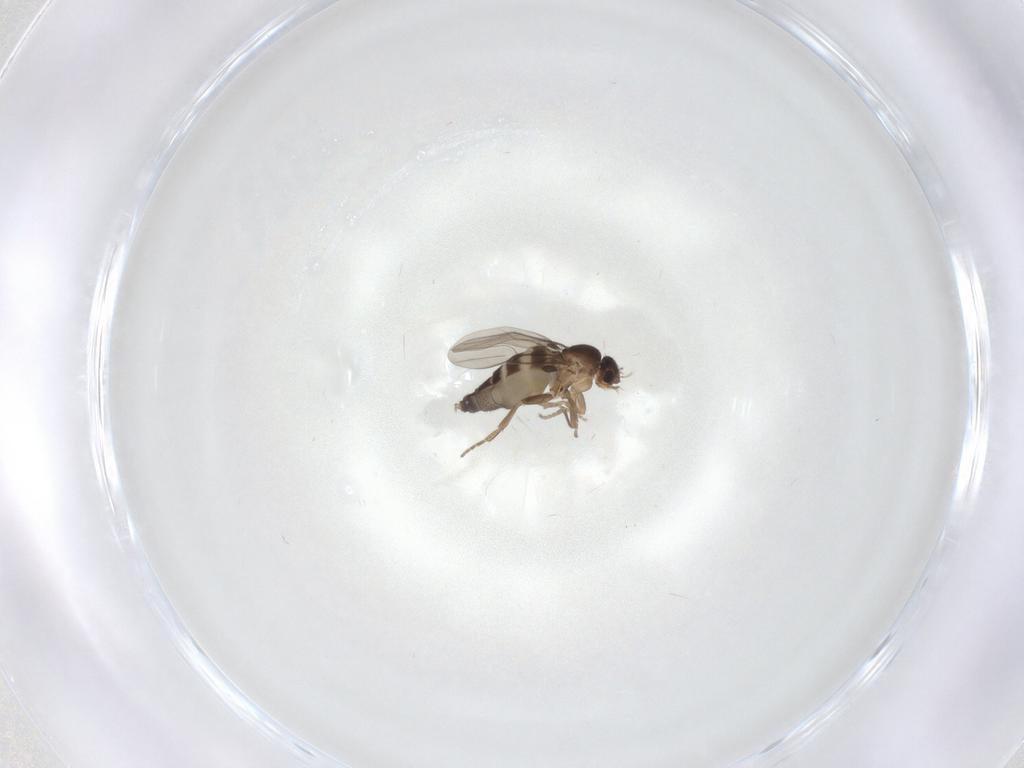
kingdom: Animalia
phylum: Arthropoda
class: Insecta
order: Diptera
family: Phoridae
